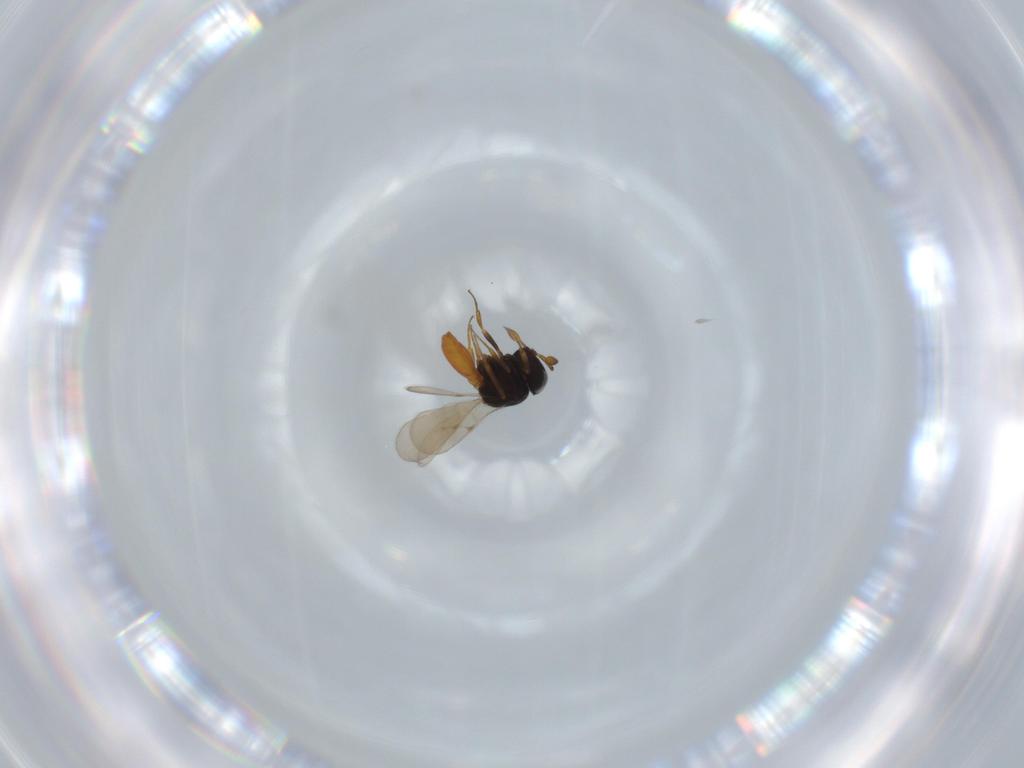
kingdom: Animalia
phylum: Arthropoda
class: Insecta
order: Hymenoptera
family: Scelionidae
